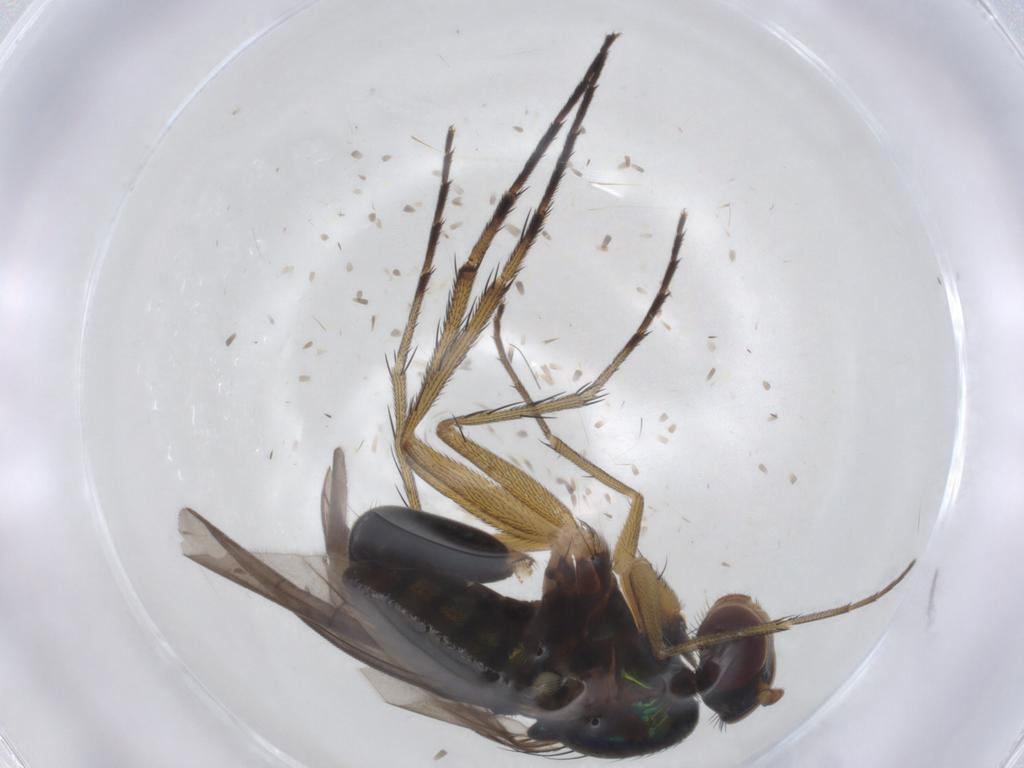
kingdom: Animalia
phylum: Arthropoda
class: Insecta
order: Diptera
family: Dolichopodidae
